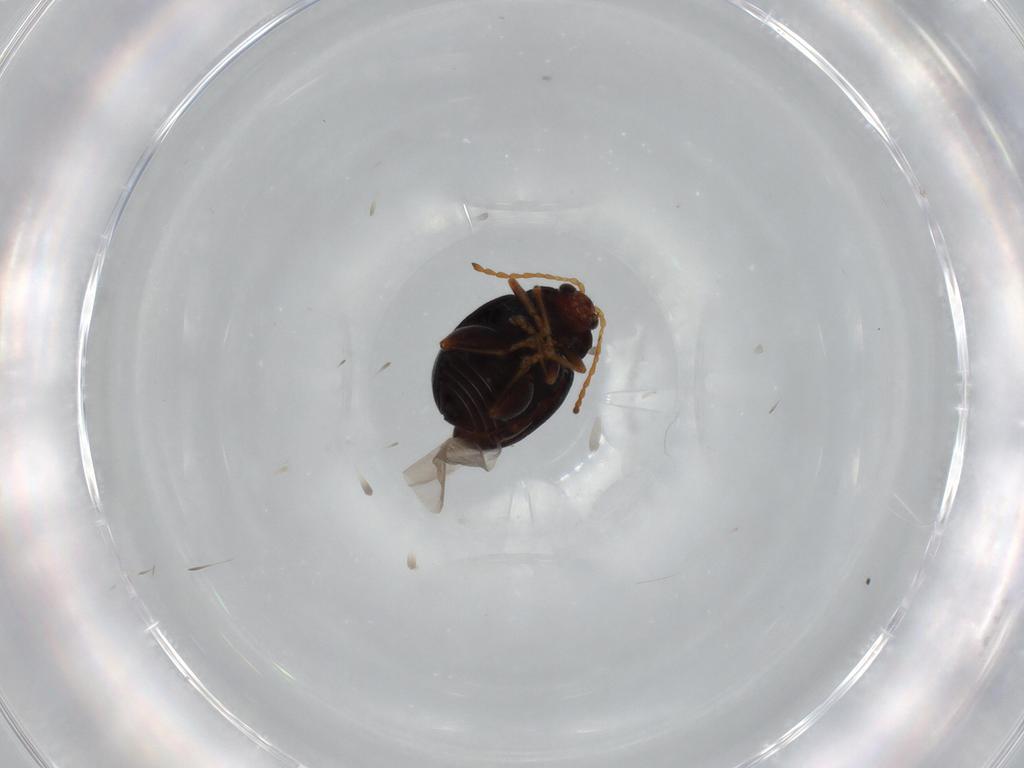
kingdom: Animalia
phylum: Arthropoda
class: Insecta
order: Coleoptera
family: Chrysomelidae
